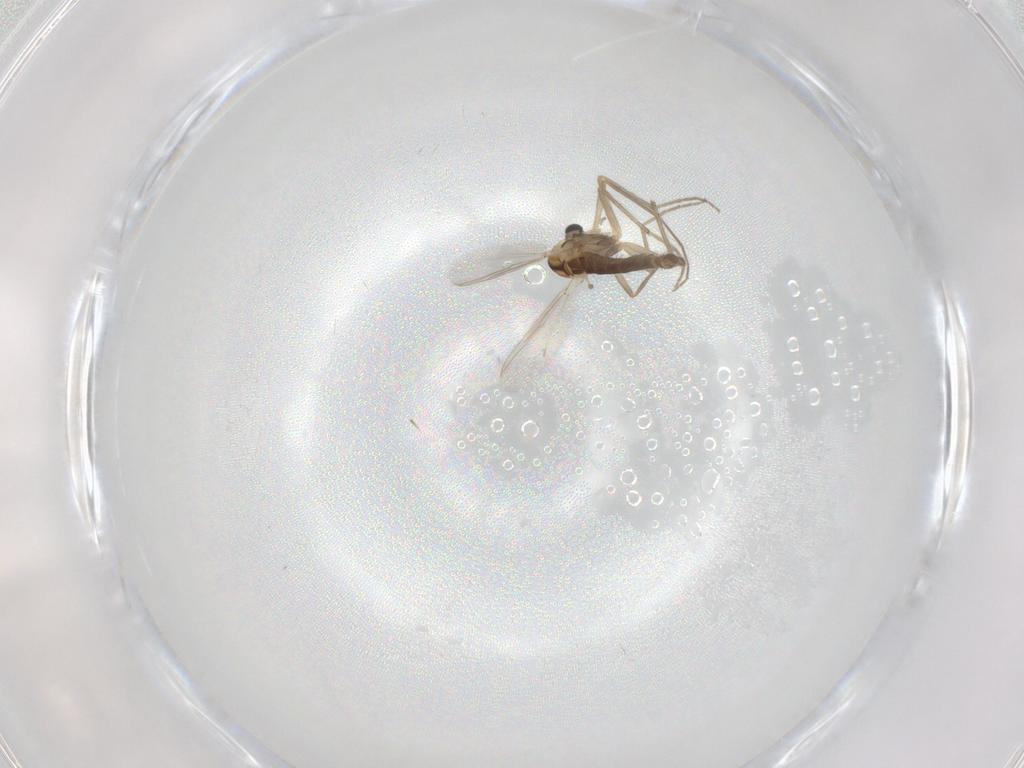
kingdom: Animalia
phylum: Arthropoda
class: Insecta
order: Diptera
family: Chironomidae
